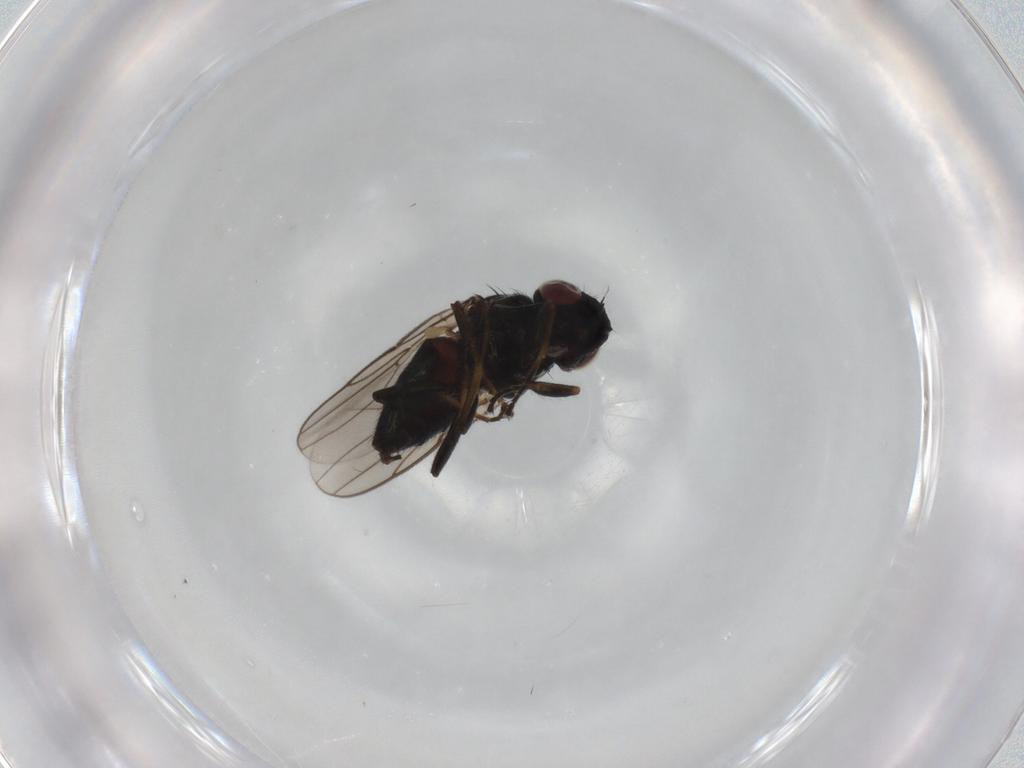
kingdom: Animalia
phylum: Arthropoda
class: Insecta
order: Diptera
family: Chloropidae
